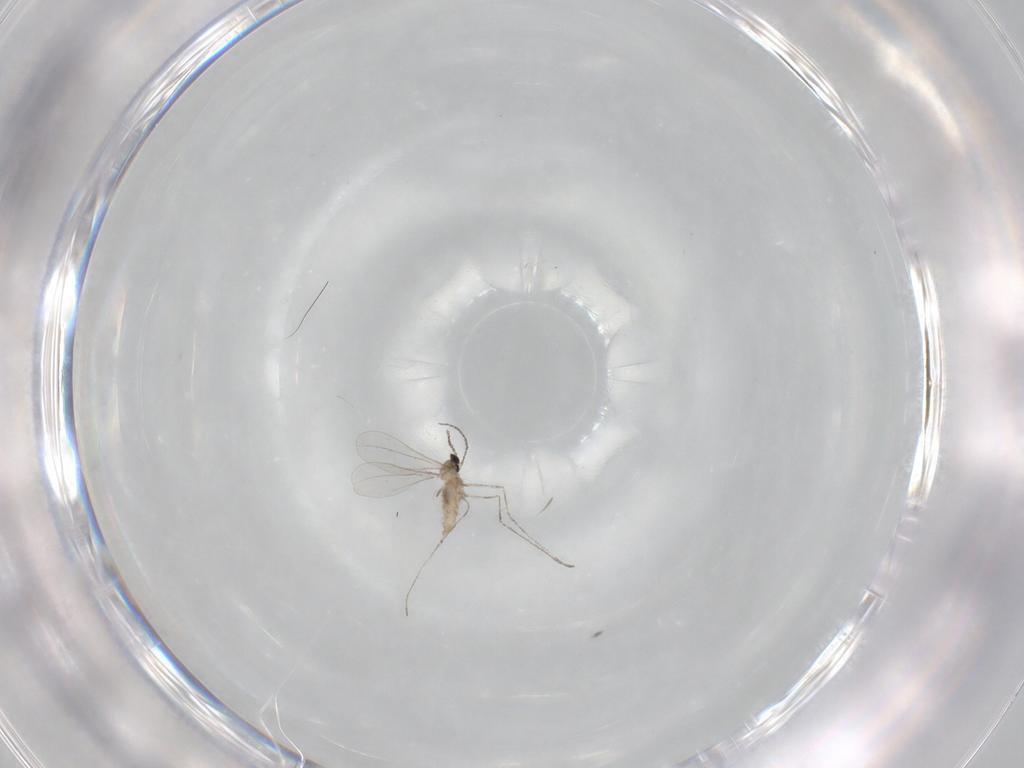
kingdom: Animalia
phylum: Arthropoda
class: Insecta
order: Diptera
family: Cecidomyiidae
